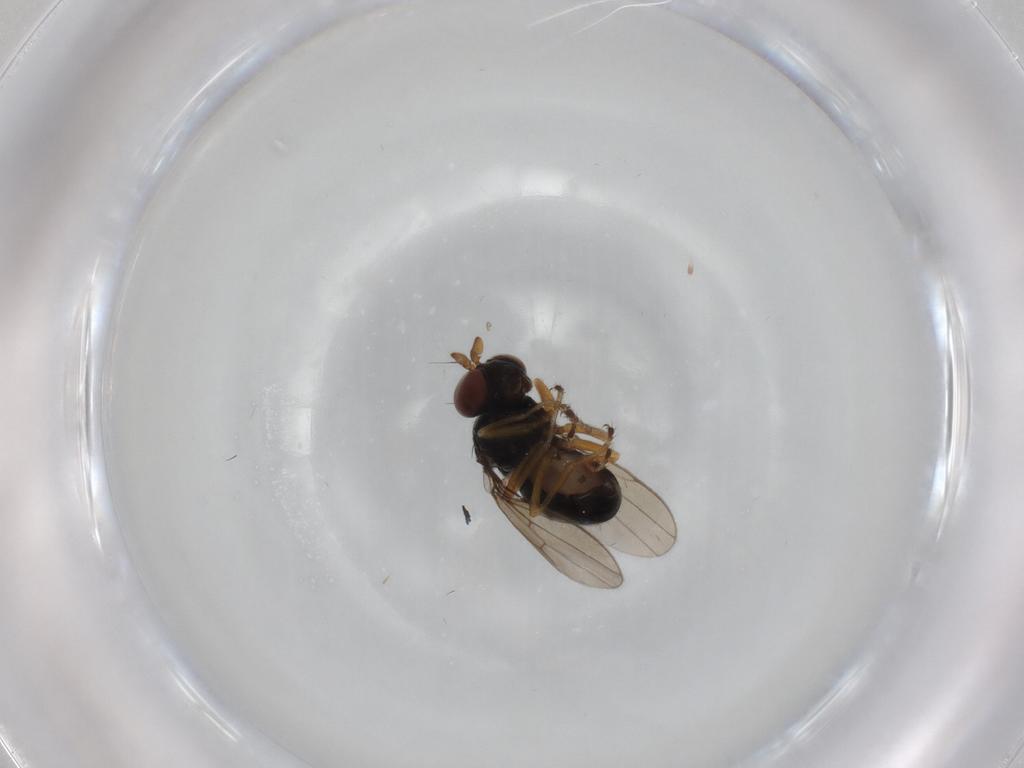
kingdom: Animalia
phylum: Arthropoda
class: Insecta
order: Diptera
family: Ephydridae
